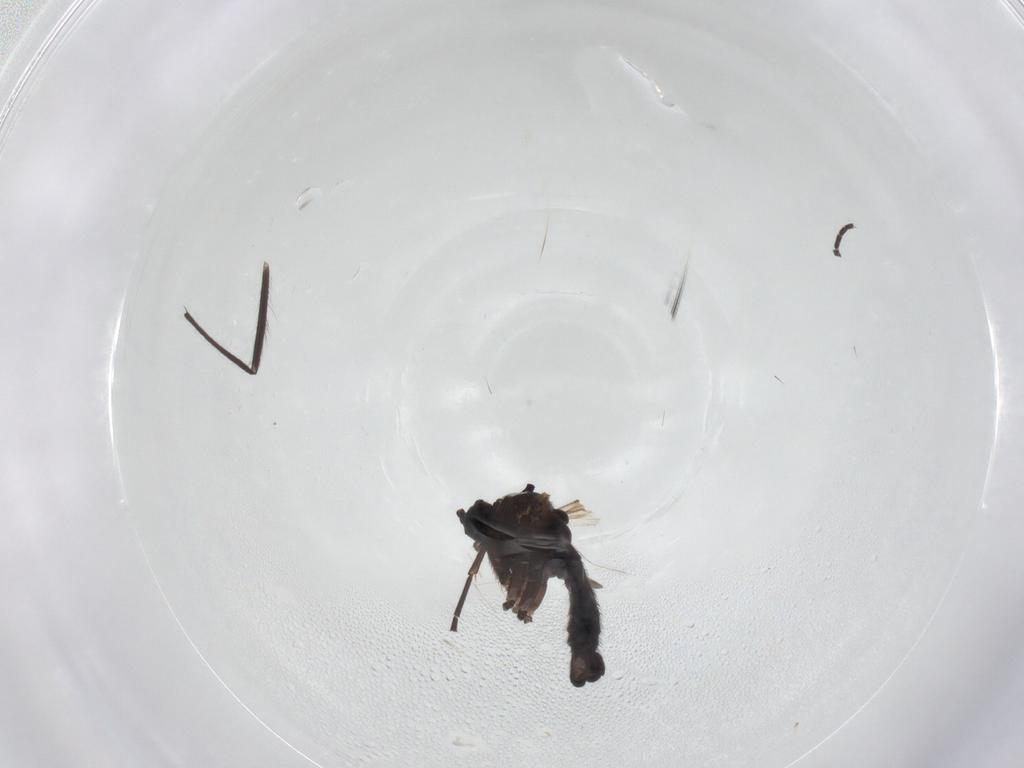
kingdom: Animalia
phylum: Arthropoda
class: Insecta
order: Diptera
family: Sciaridae
